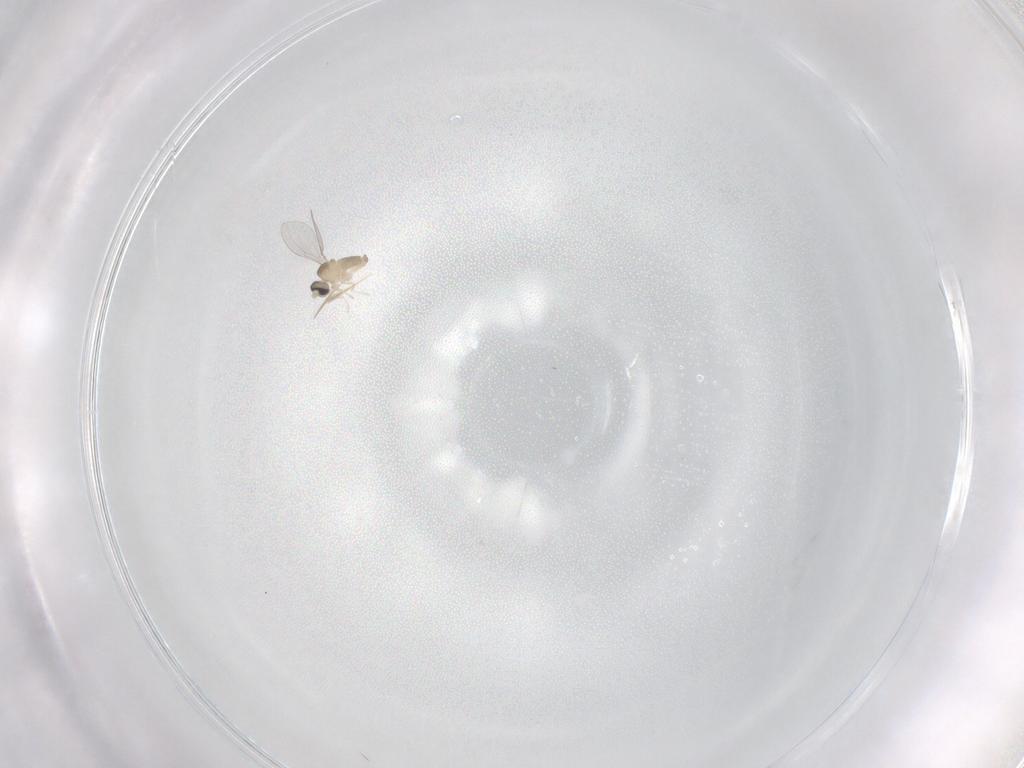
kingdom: Animalia
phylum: Arthropoda
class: Insecta
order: Diptera
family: Cecidomyiidae
